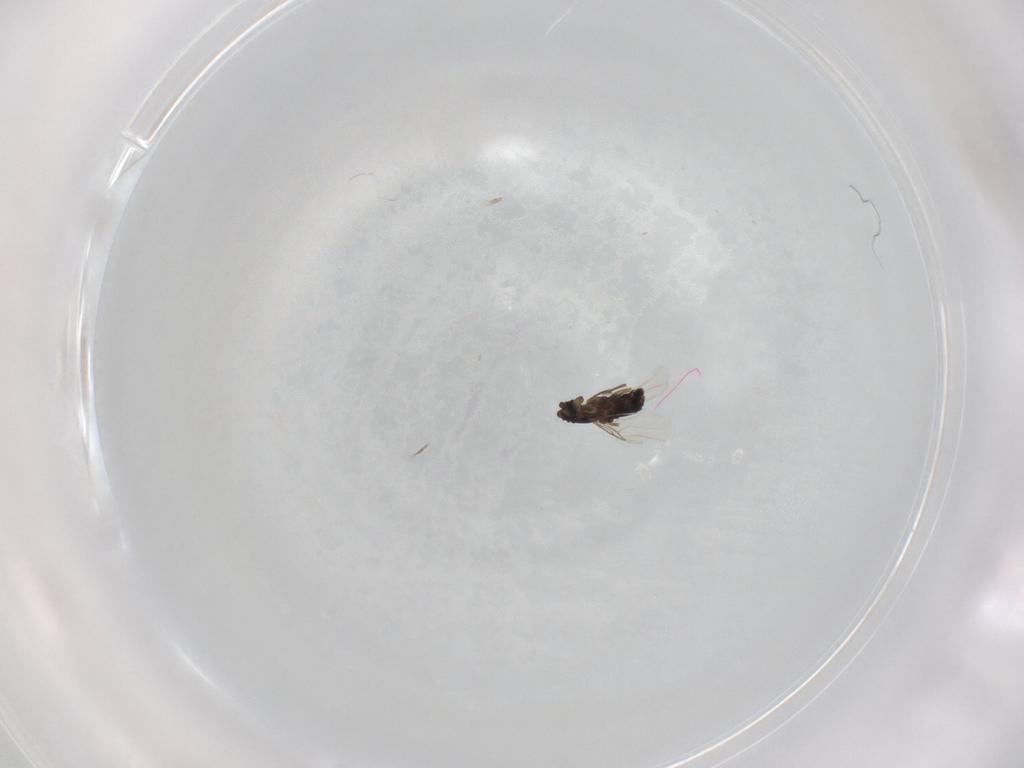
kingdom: Animalia
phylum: Arthropoda
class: Insecta
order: Diptera
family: Glossinidae
